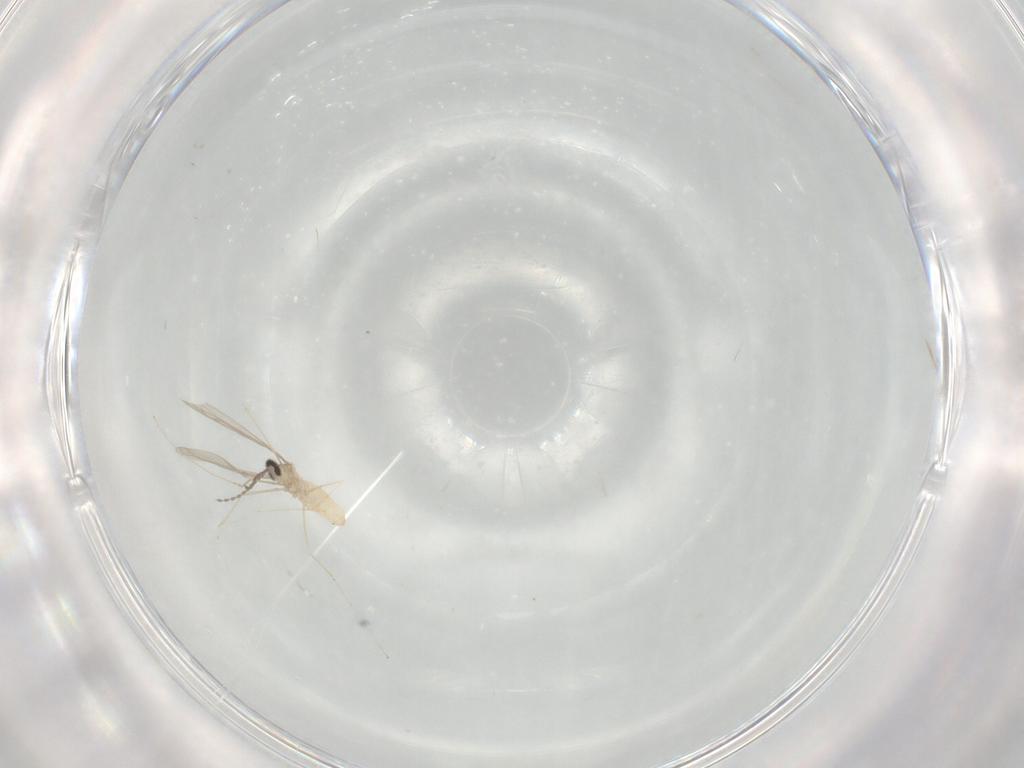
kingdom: Animalia
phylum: Arthropoda
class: Insecta
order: Diptera
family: Cecidomyiidae
